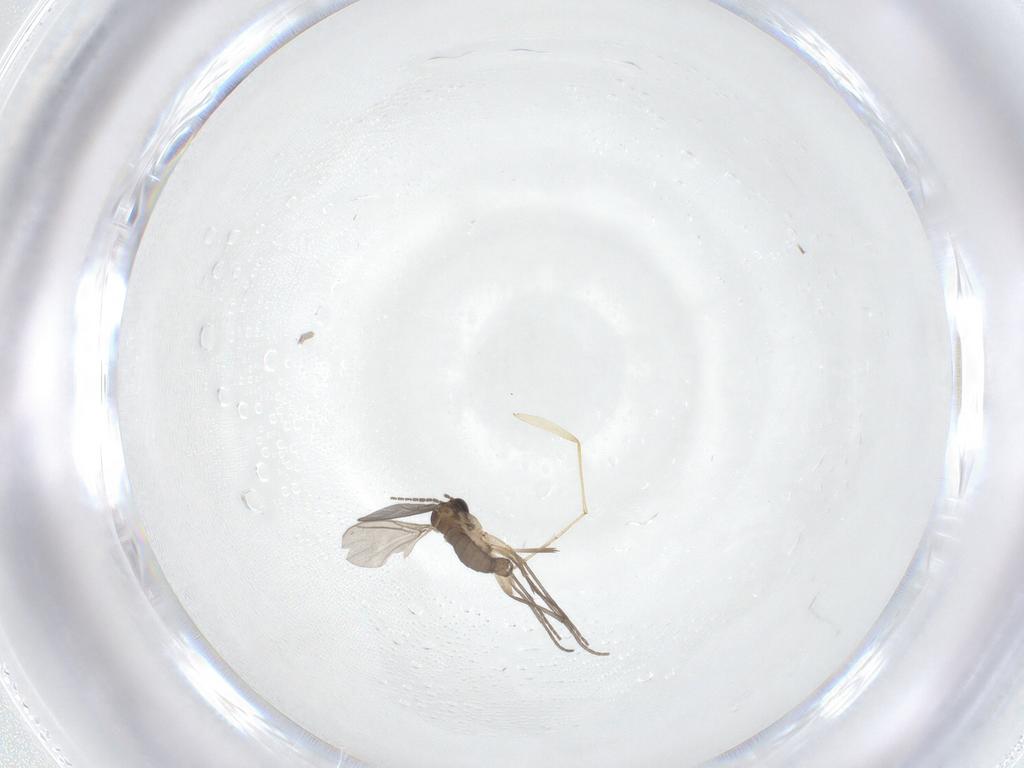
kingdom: Animalia
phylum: Arthropoda
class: Insecta
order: Diptera
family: Sciaridae
